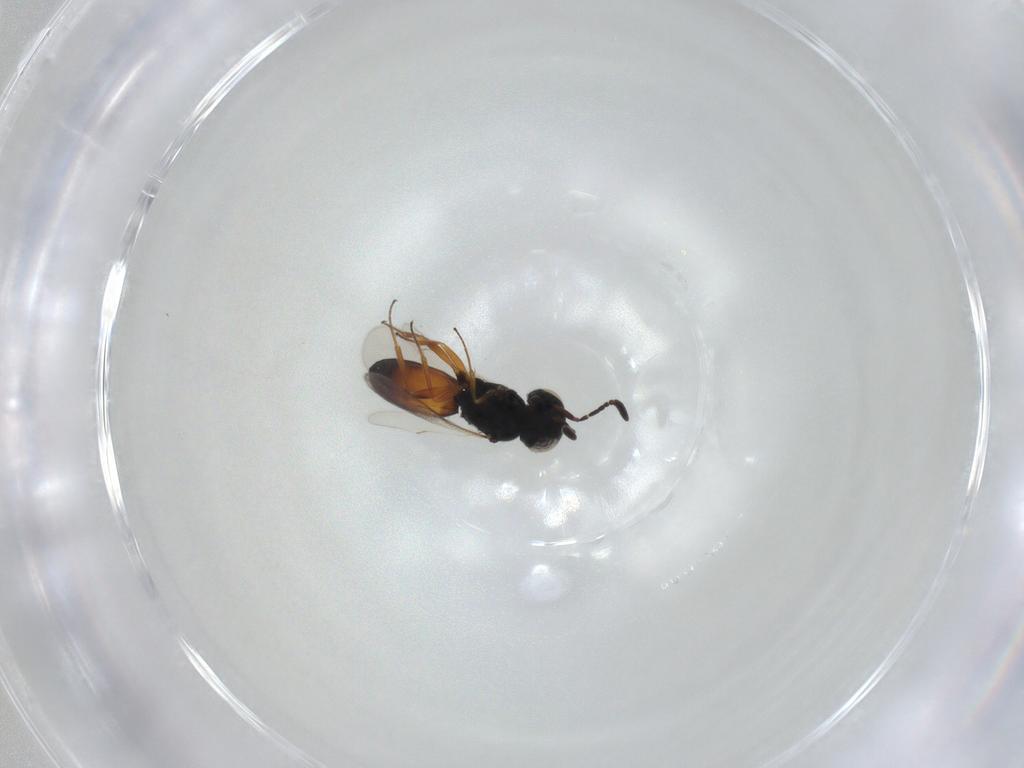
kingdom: Animalia
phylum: Arthropoda
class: Insecta
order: Hymenoptera
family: Scelionidae
